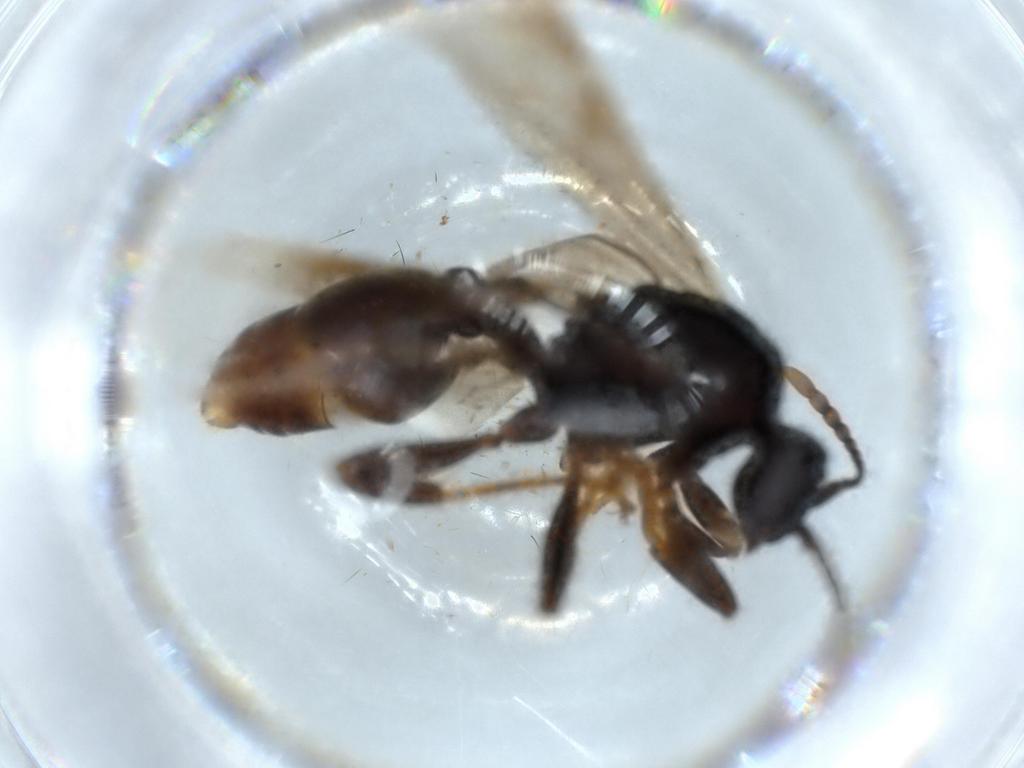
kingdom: Animalia
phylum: Arthropoda
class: Insecta
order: Hymenoptera
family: Formicidae
